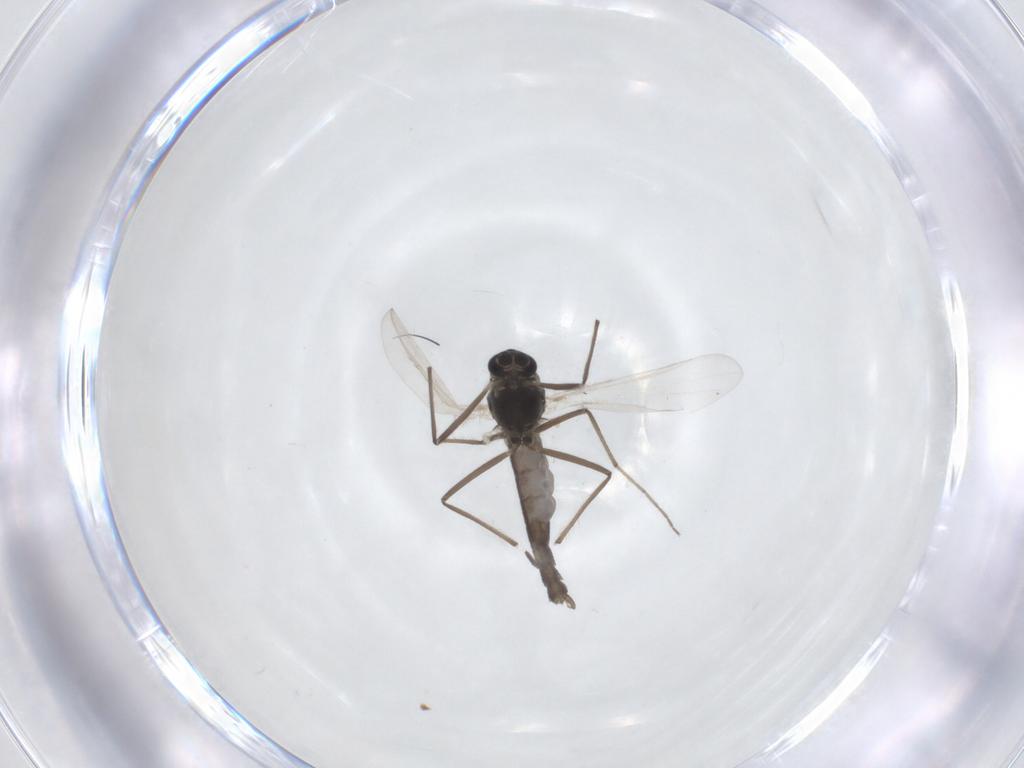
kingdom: Animalia
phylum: Arthropoda
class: Insecta
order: Diptera
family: Chironomidae
